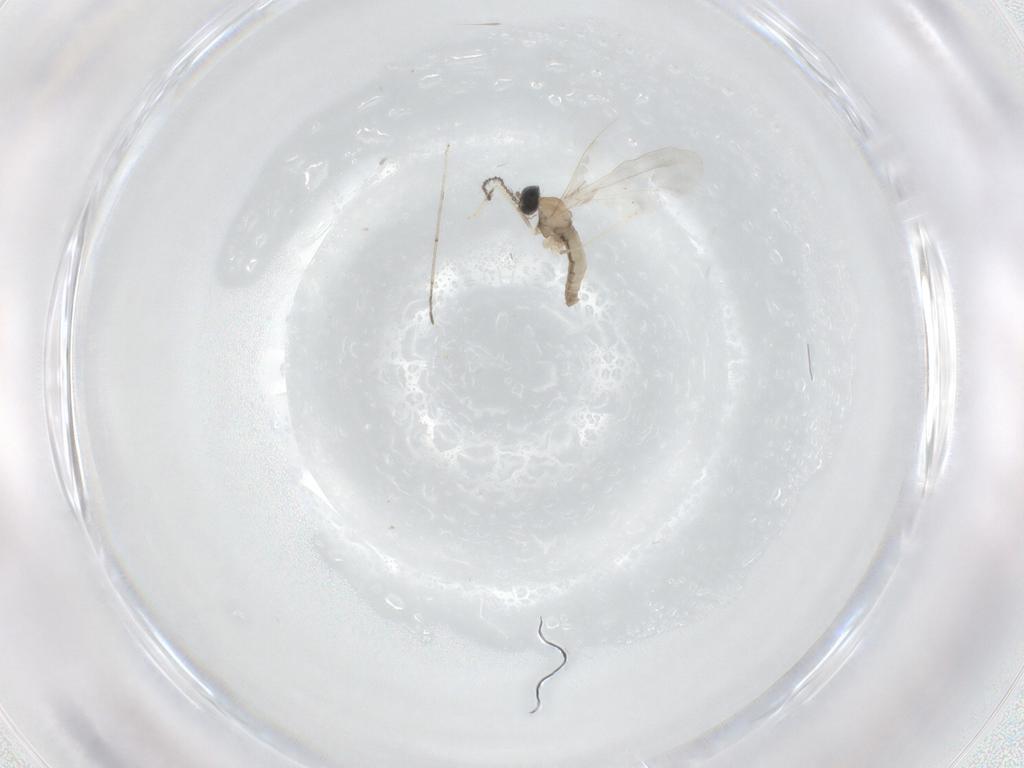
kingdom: Animalia
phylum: Arthropoda
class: Insecta
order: Diptera
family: Cecidomyiidae
